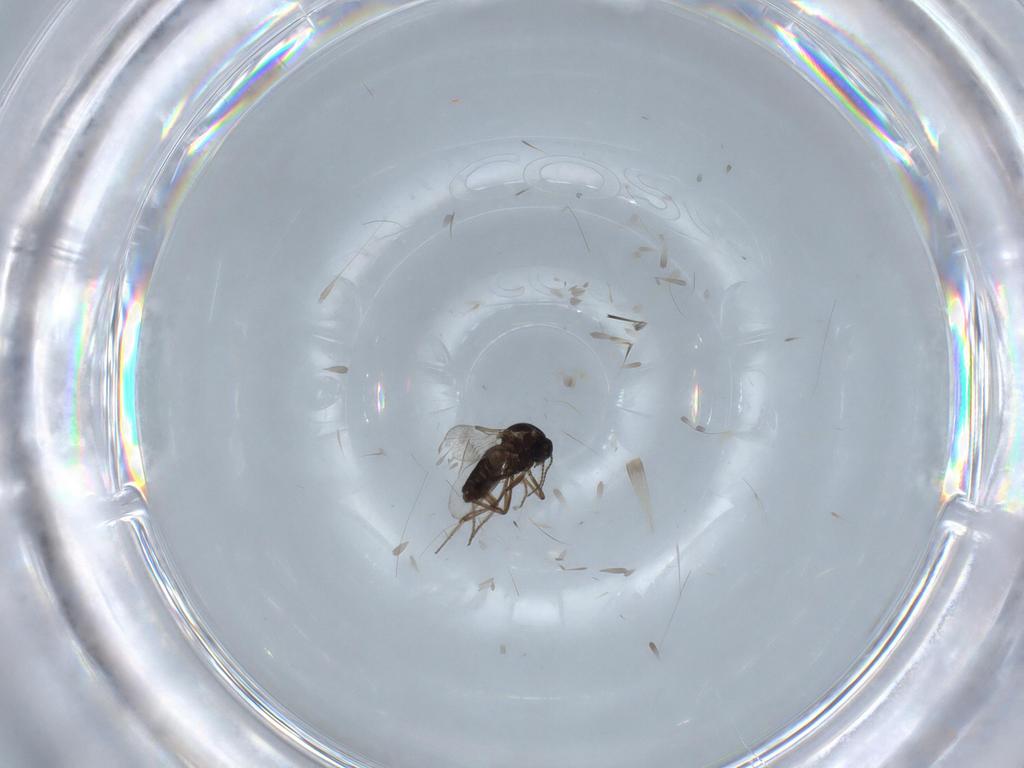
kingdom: Animalia
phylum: Arthropoda
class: Insecta
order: Diptera
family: Ceratopogonidae
